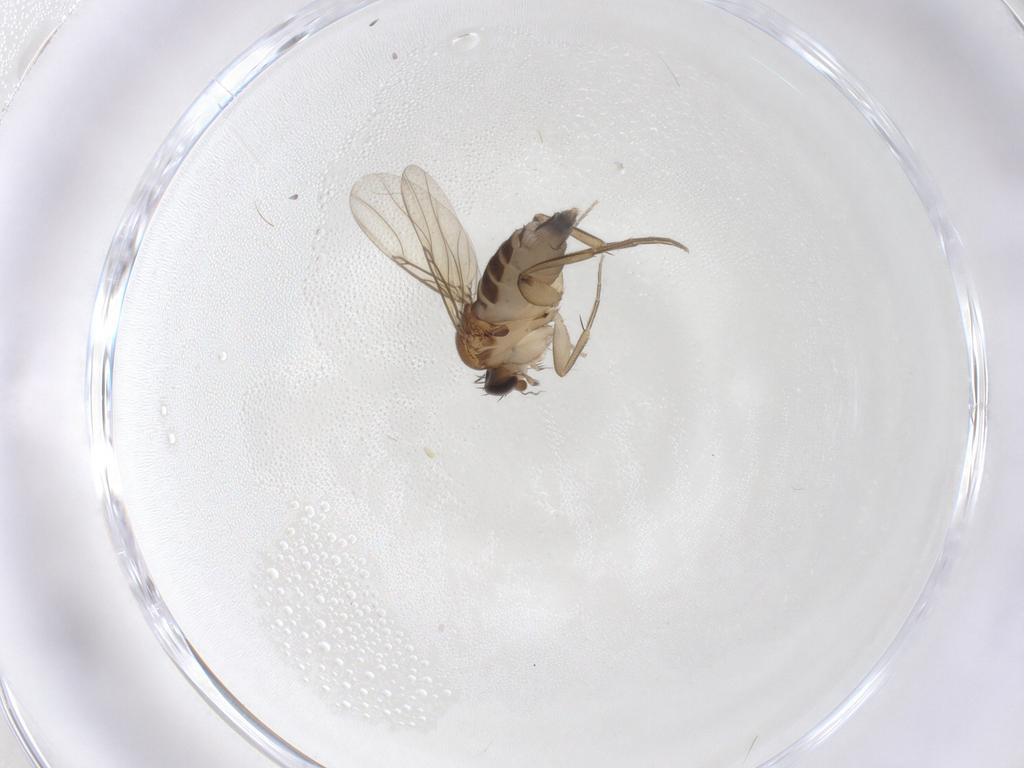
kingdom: Animalia
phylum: Arthropoda
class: Insecta
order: Diptera
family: Phoridae
